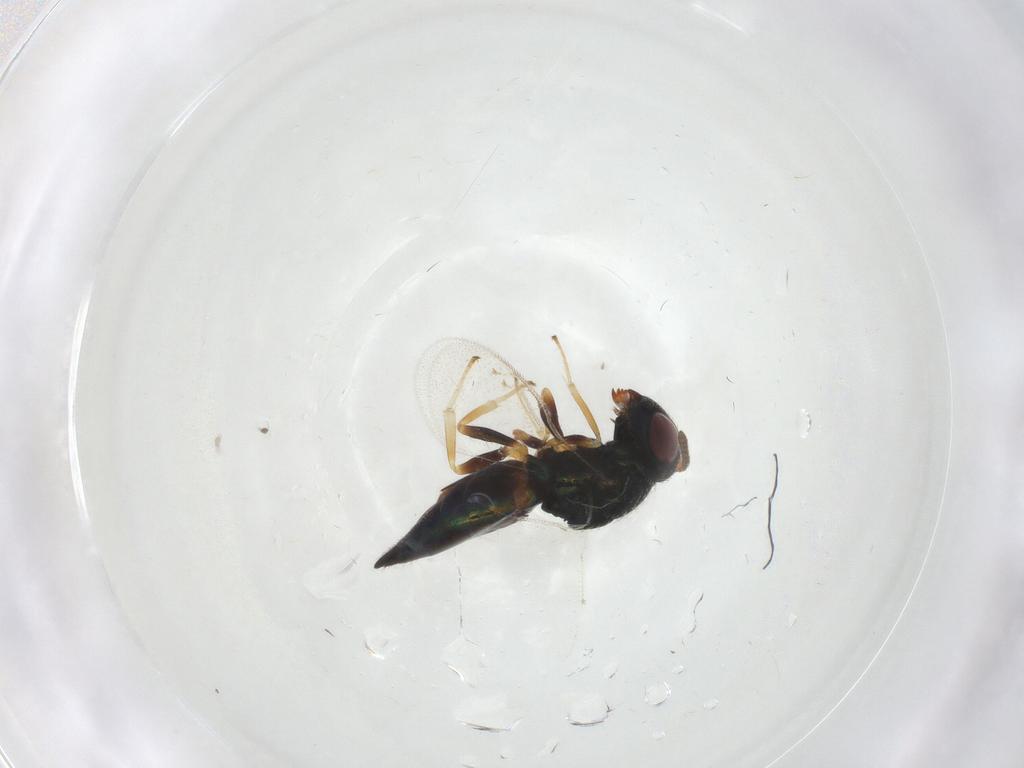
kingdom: Animalia
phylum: Arthropoda
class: Insecta
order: Hymenoptera
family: Pteromalidae
